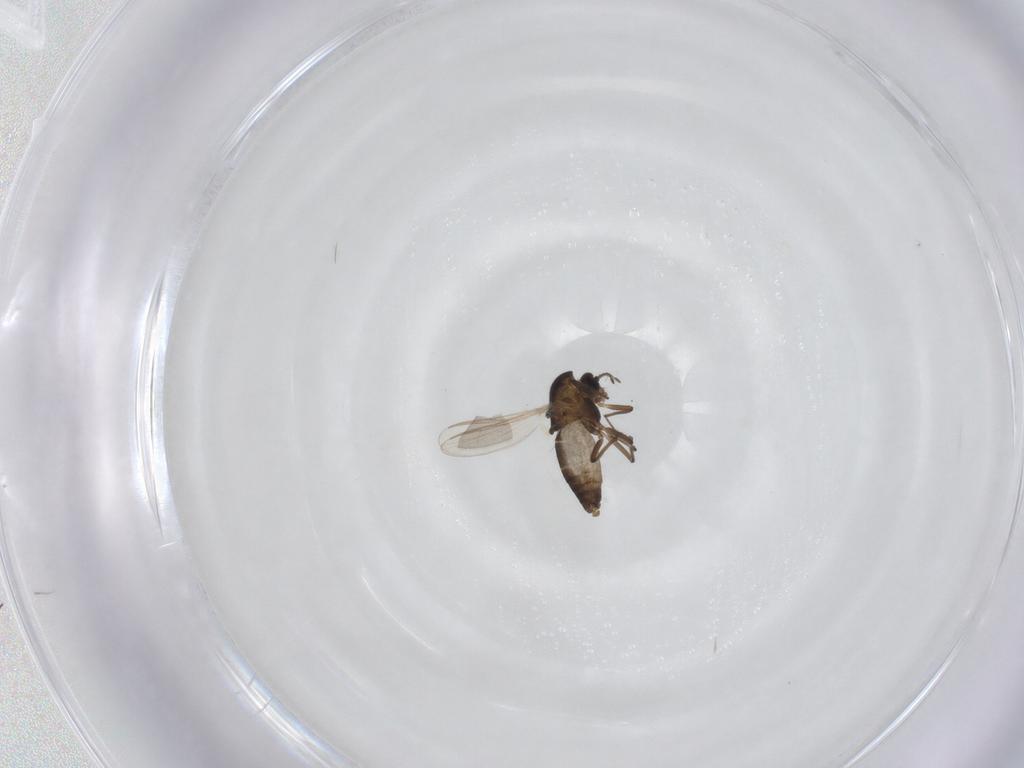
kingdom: Animalia
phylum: Arthropoda
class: Insecta
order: Diptera
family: Chironomidae
